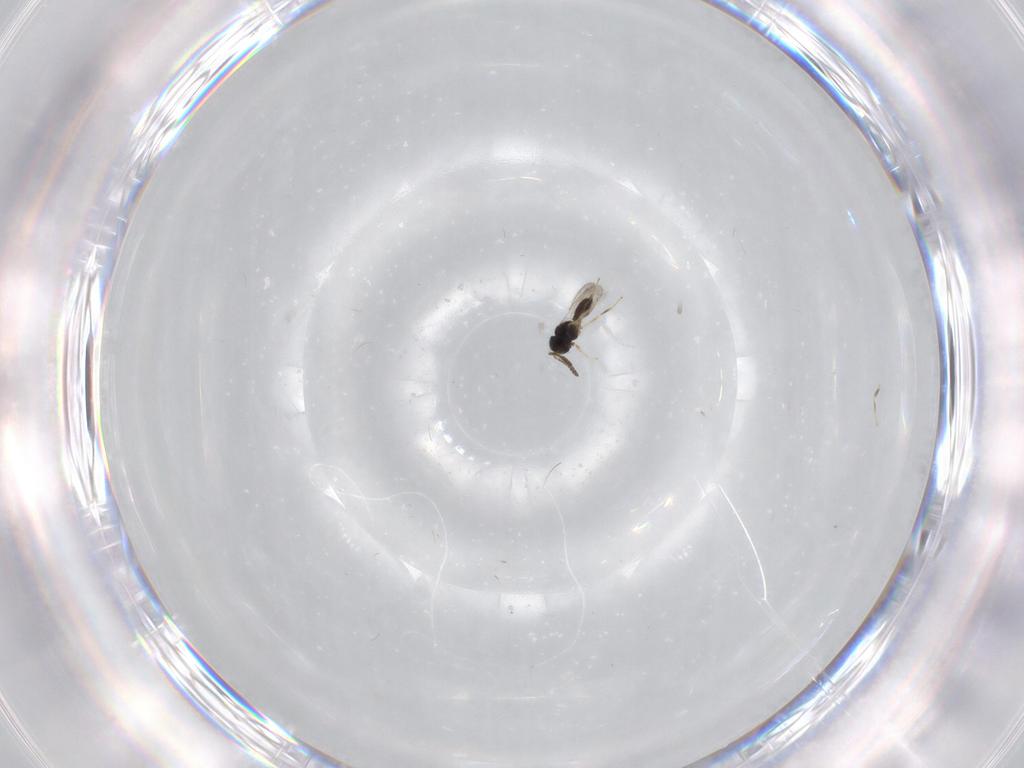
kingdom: Animalia
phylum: Arthropoda
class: Insecta
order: Hymenoptera
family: Scelionidae
